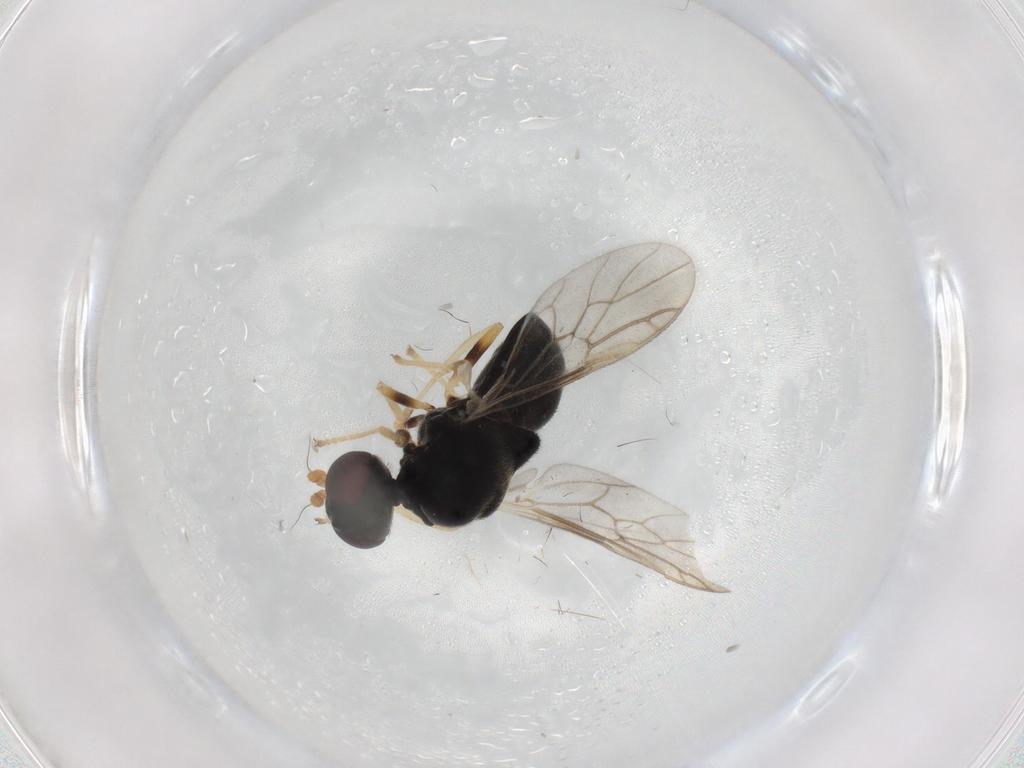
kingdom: Animalia
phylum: Arthropoda
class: Insecta
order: Diptera
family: Stratiomyidae
